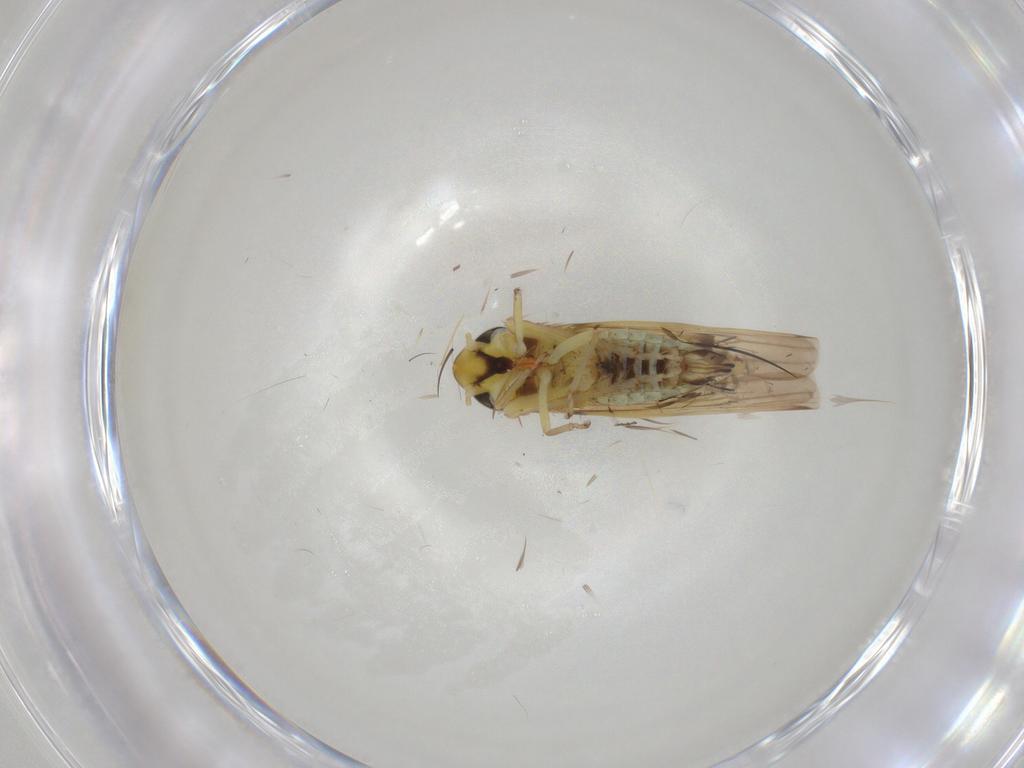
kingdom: Animalia
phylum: Arthropoda
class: Insecta
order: Hemiptera
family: Cicadellidae
